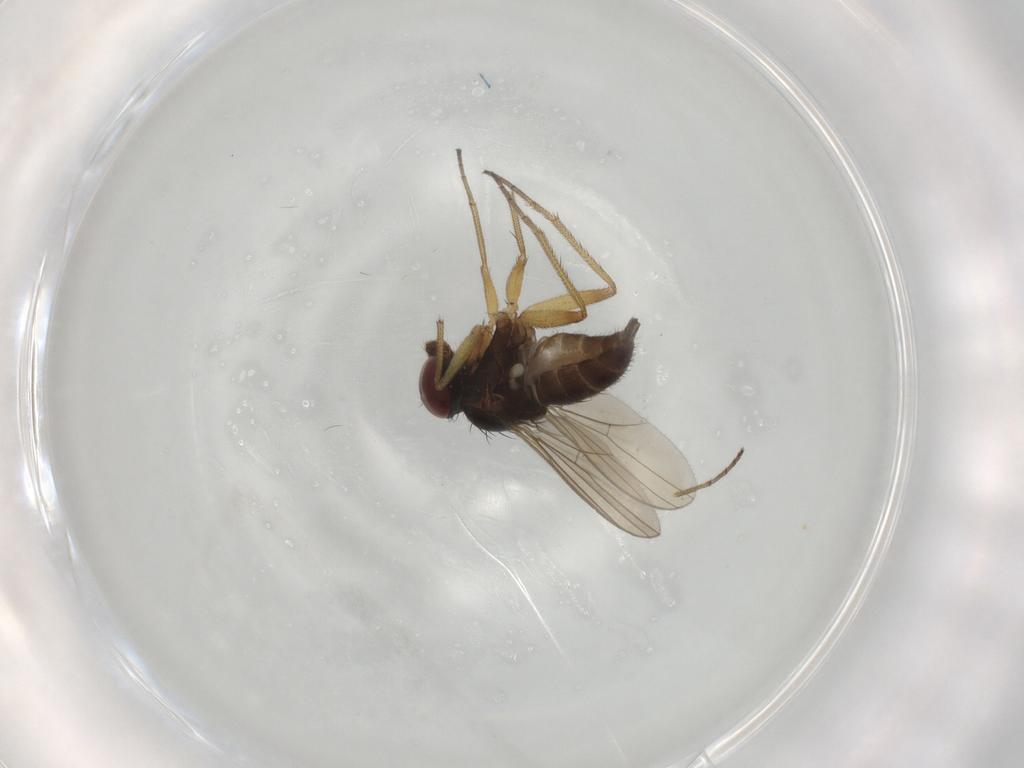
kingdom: Animalia
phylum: Arthropoda
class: Insecta
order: Diptera
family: Dolichopodidae
